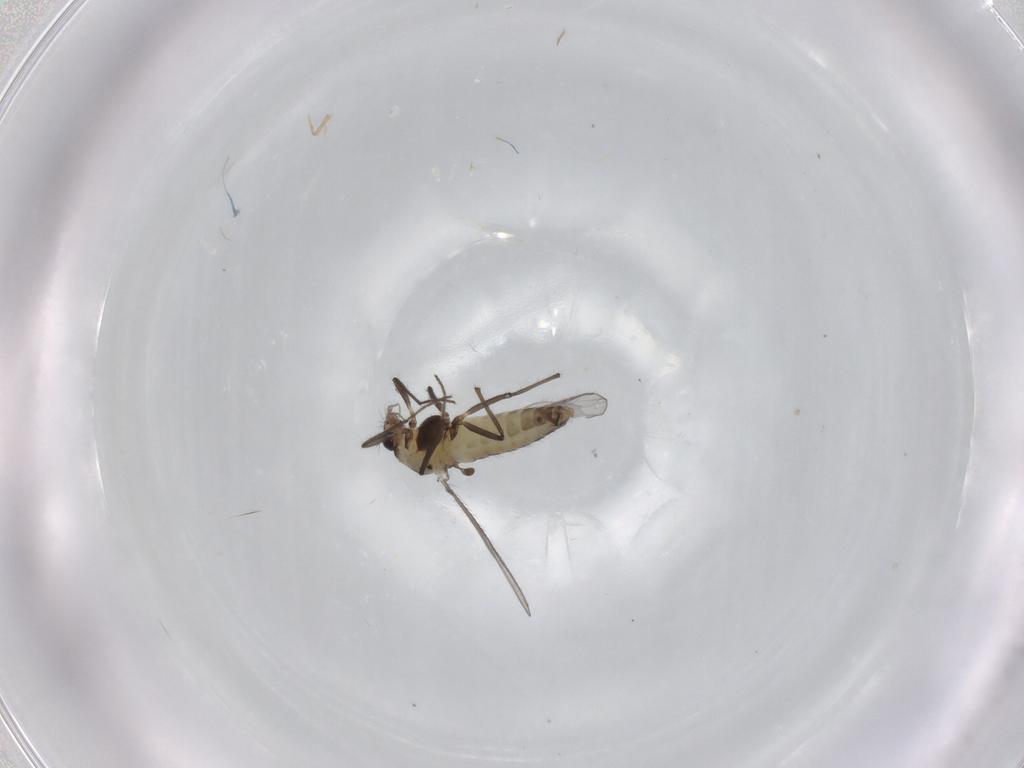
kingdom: Animalia
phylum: Arthropoda
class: Insecta
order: Diptera
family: Chironomidae
